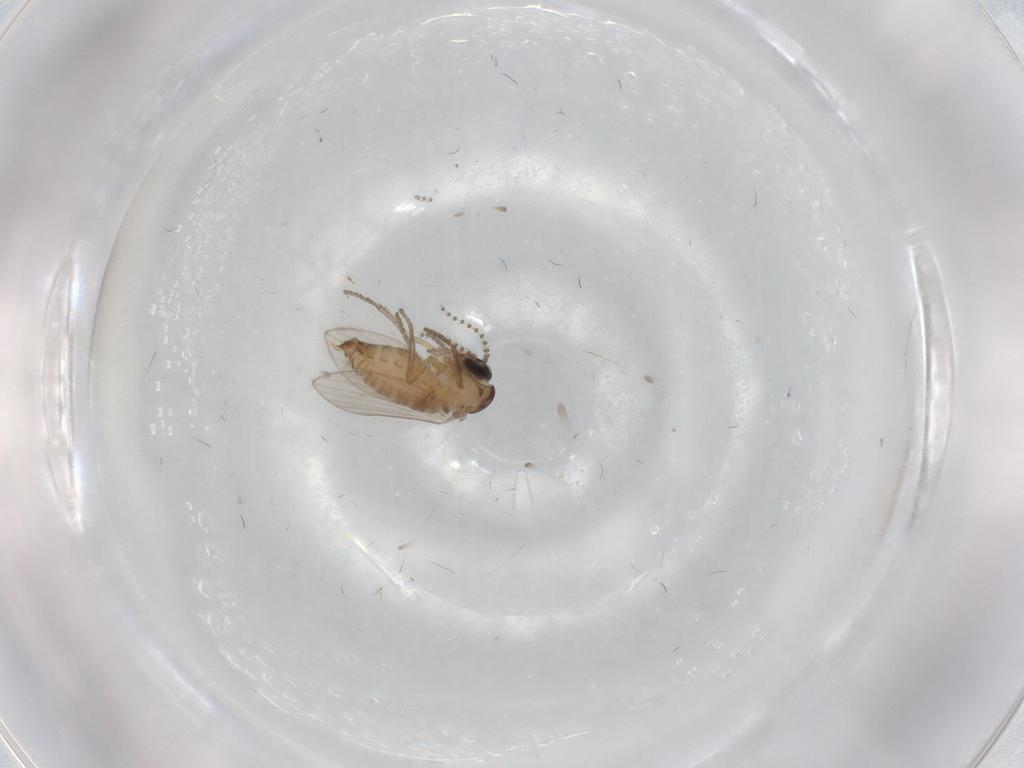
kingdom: Animalia
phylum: Arthropoda
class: Insecta
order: Diptera
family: Psychodidae
